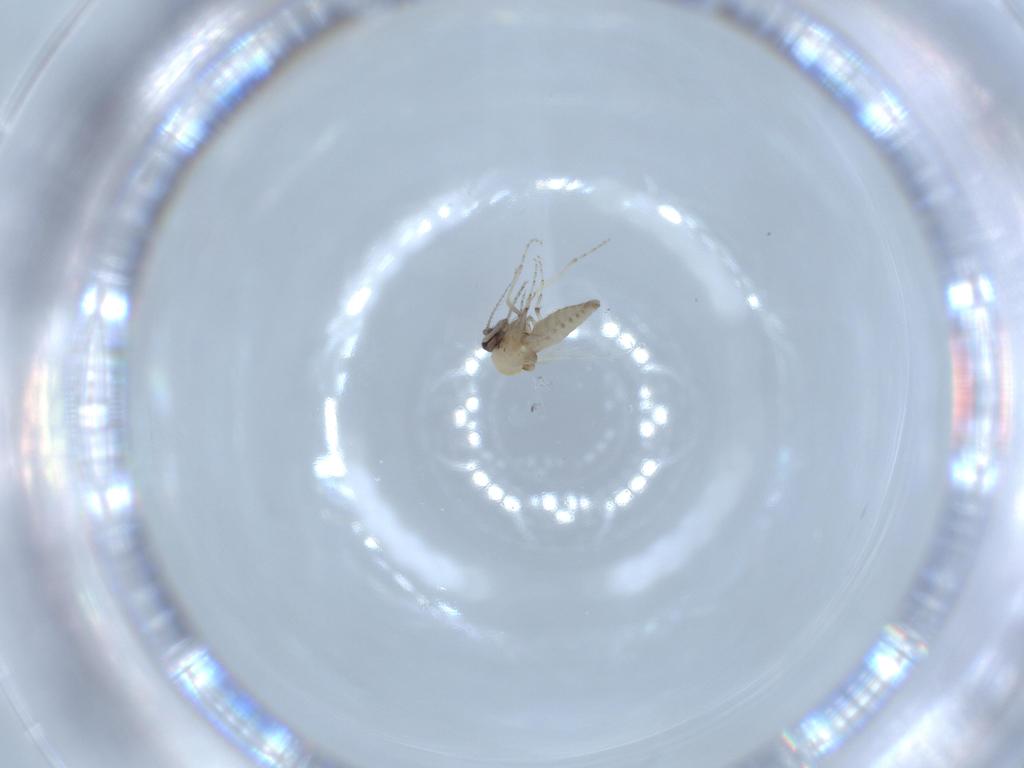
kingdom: Animalia
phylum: Arthropoda
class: Insecta
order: Diptera
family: Ceratopogonidae
